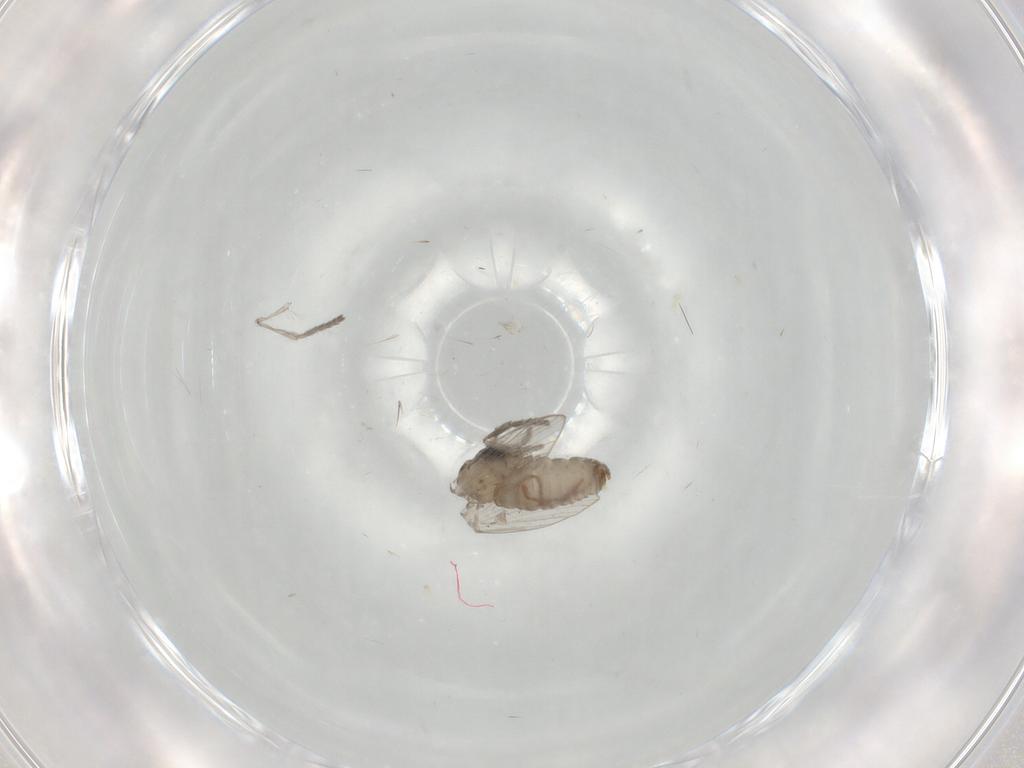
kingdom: Animalia
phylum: Arthropoda
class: Insecta
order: Diptera
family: Psychodidae
